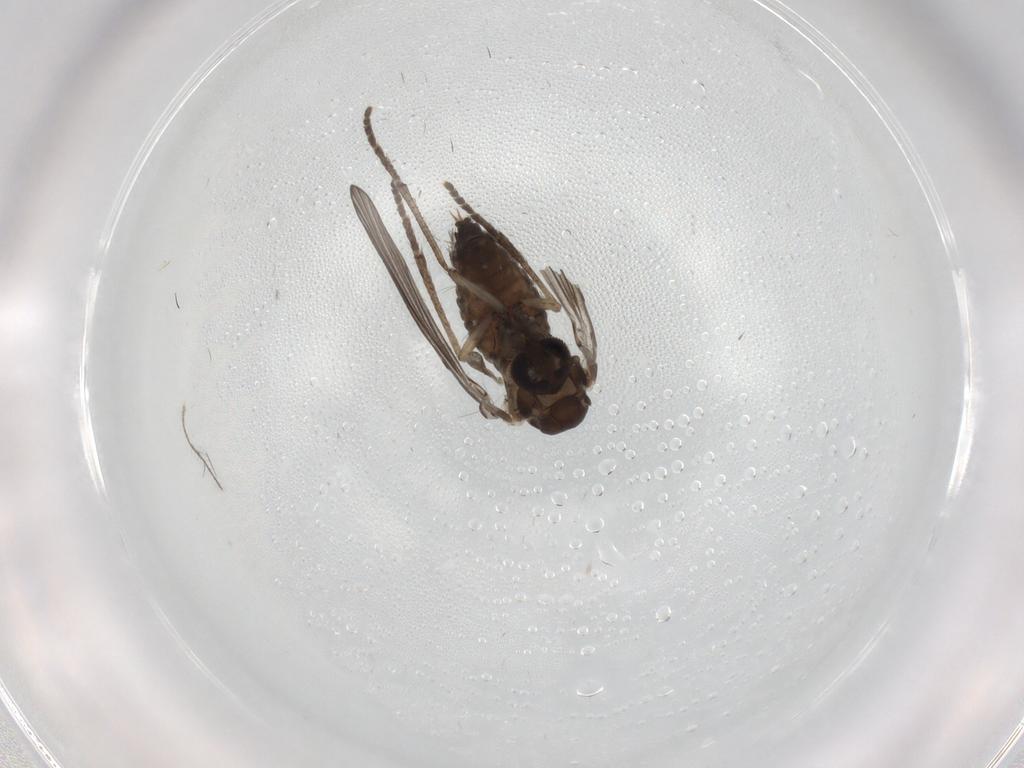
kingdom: Animalia
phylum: Arthropoda
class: Insecta
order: Diptera
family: Psychodidae
